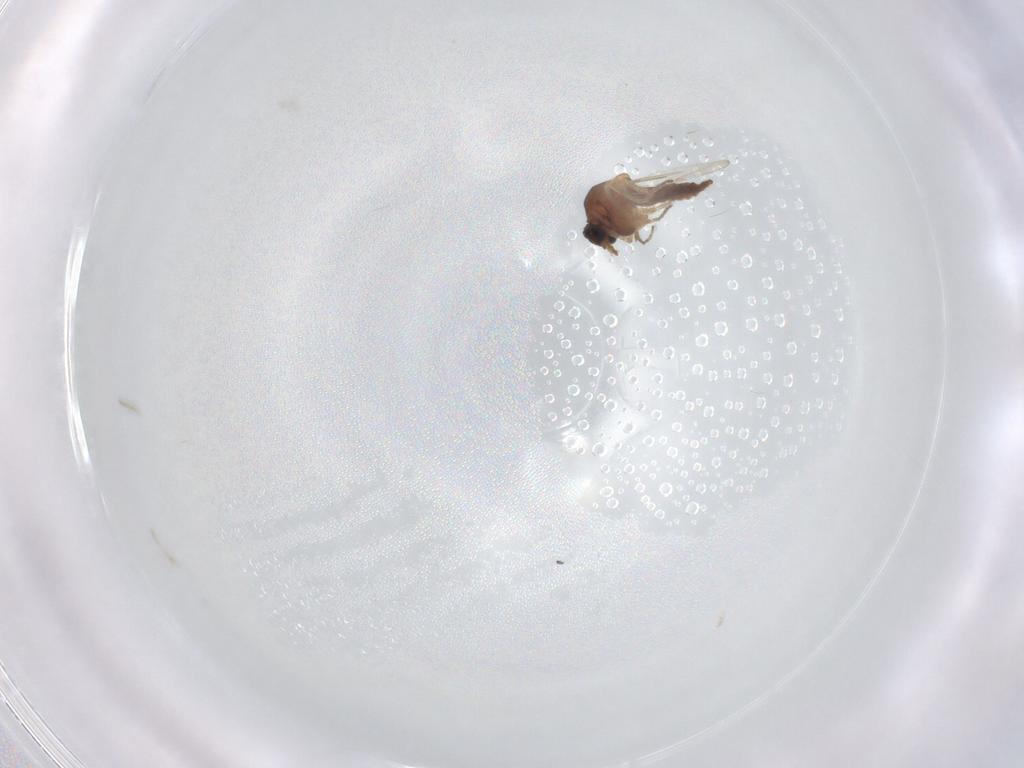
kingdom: Animalia
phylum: Arthropoda
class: Insecta
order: Diptera
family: Ceratopogonidae
